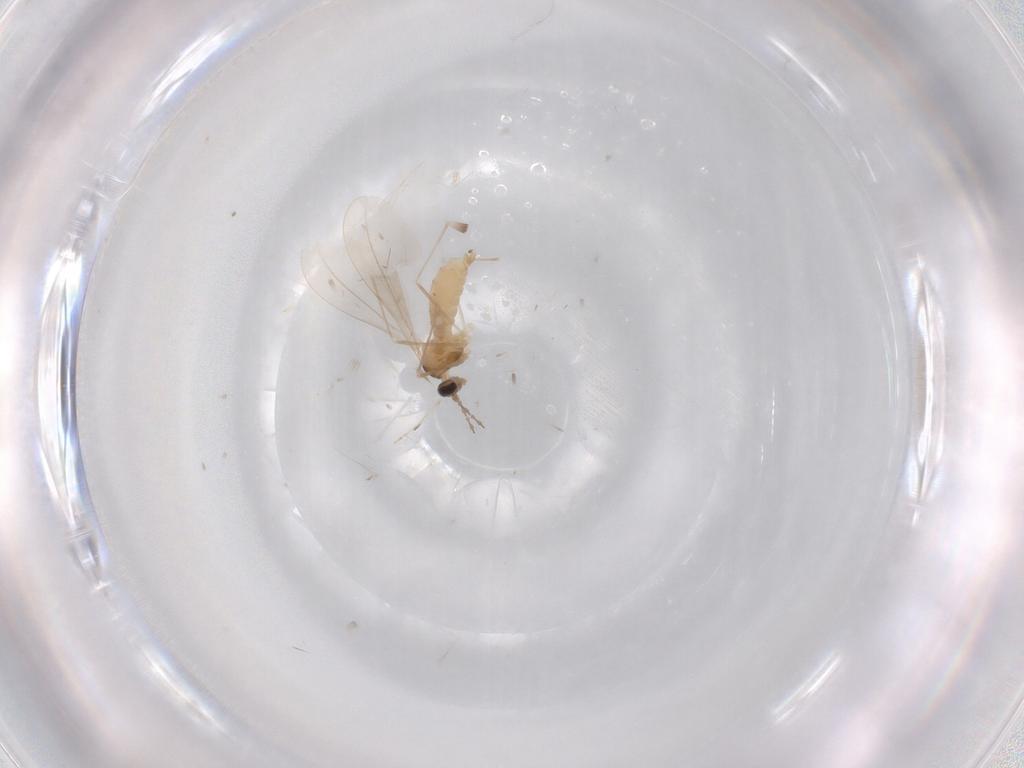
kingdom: Animalia
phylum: Arthropoda
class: Insecta
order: Diptera
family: Cecidomyiidae
